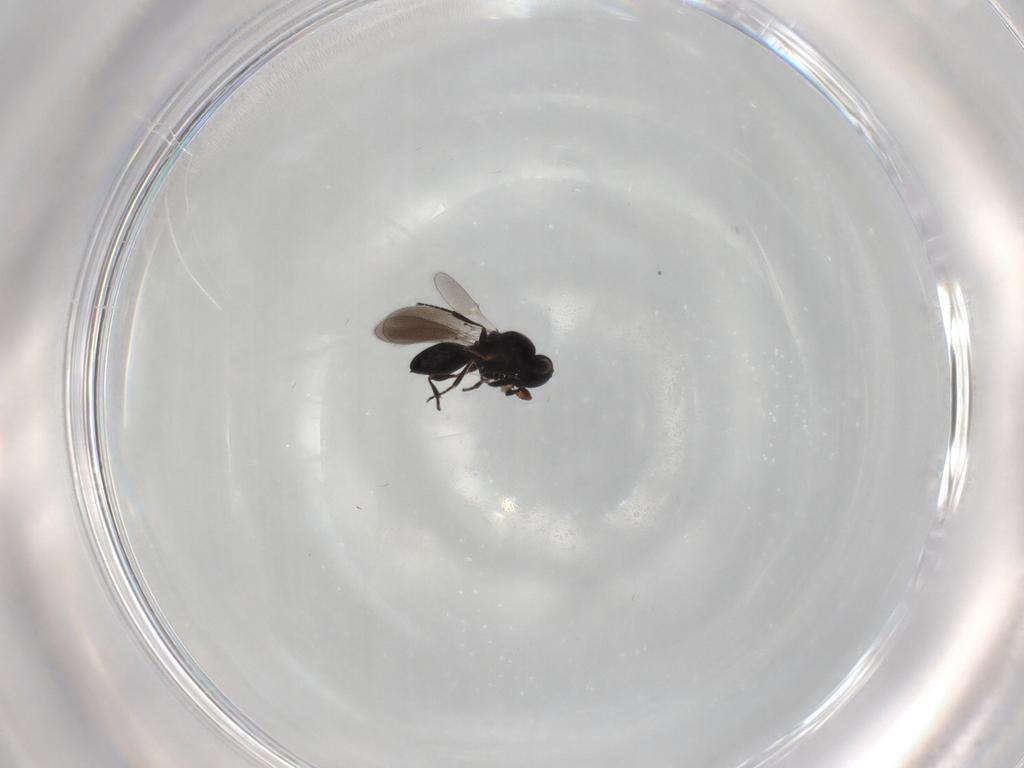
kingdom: Animalia
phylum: Arthropoda
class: Insecta
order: Hymenoptera
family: Platygastridae
